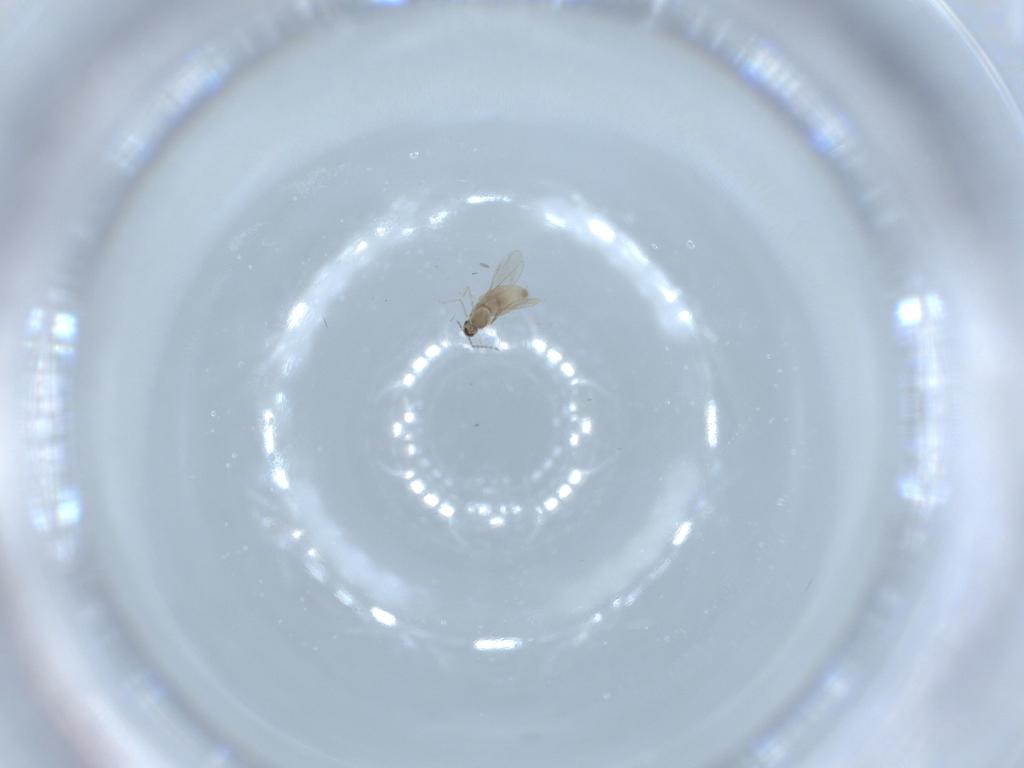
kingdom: Animalia
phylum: Arthropoda
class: Insecta
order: Diptera
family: Cecidomyiidae
